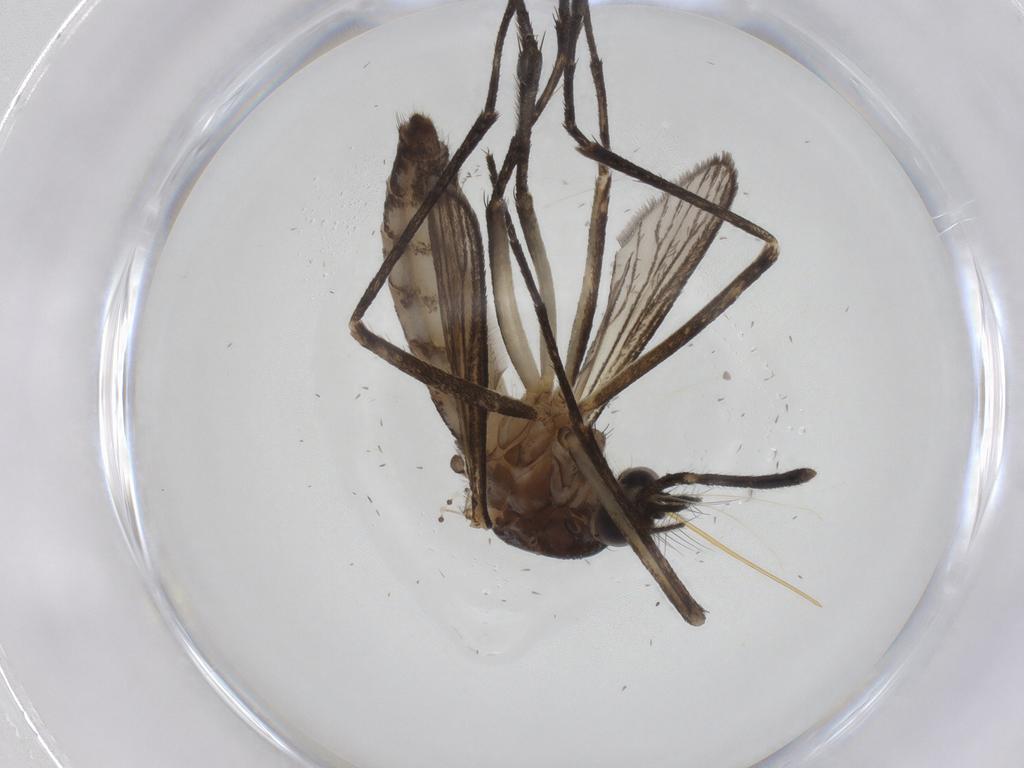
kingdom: Animalia
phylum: Arthropoda
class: Insecta
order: Diptera
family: Culicidae
